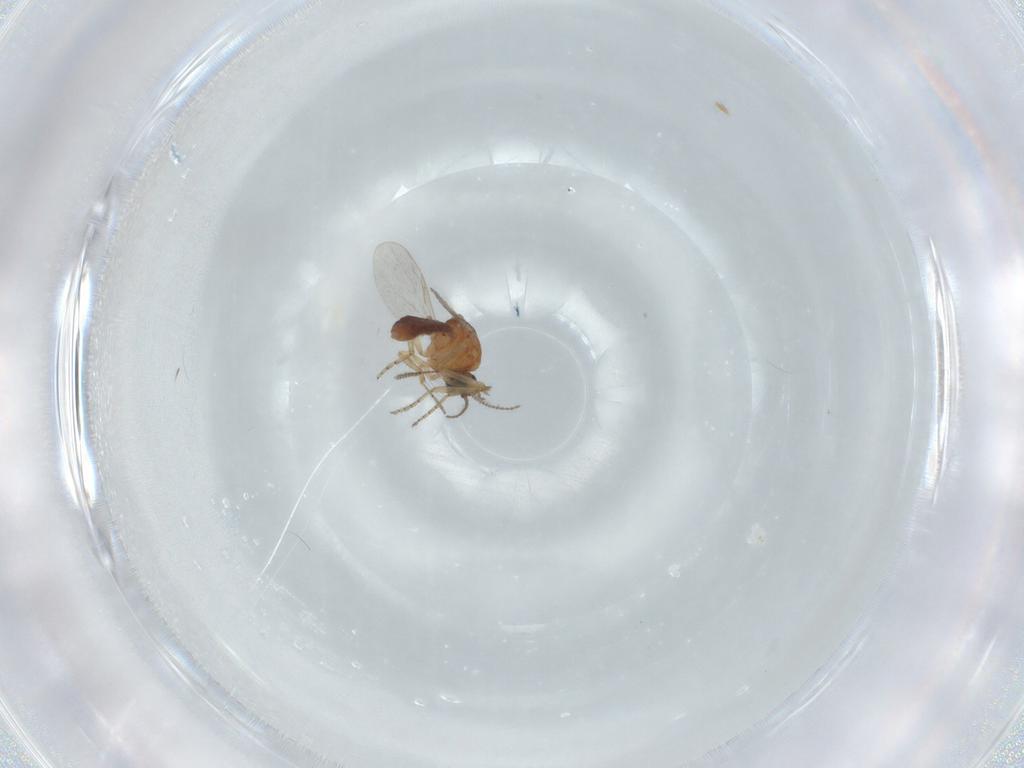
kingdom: Animalia
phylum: Arthropoda
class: Insecta
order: Diptera
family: Ceratopogonidae
